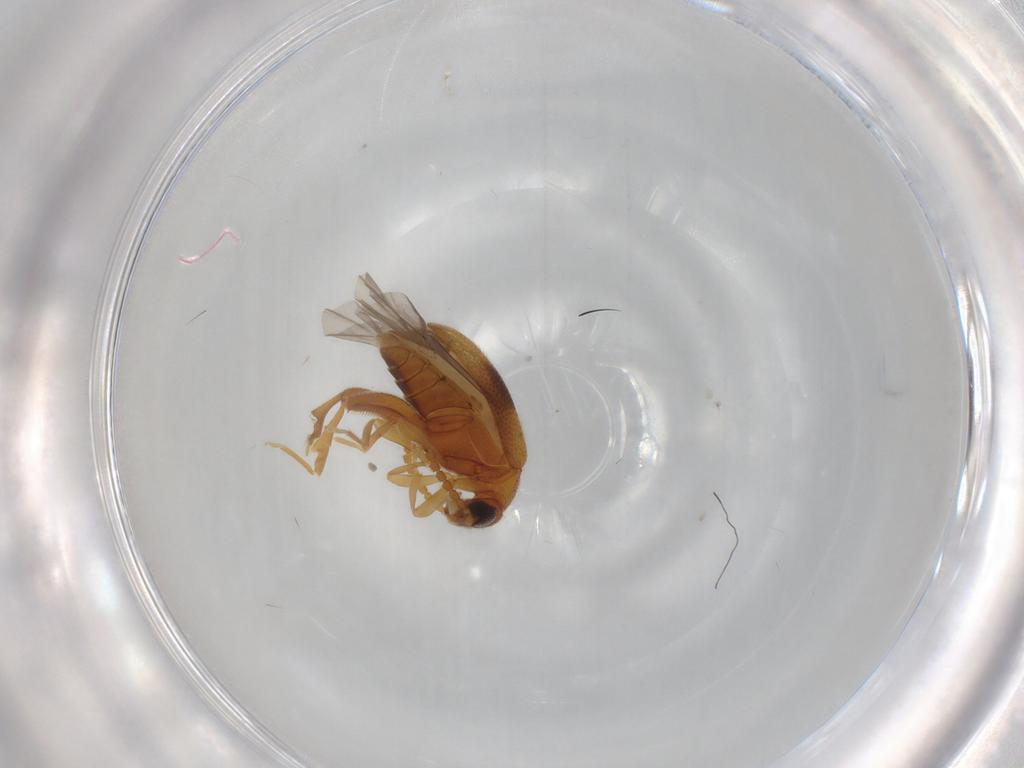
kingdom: Animalia
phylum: Arthropoda
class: Insecta
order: Coleoptera
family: Aderidae
